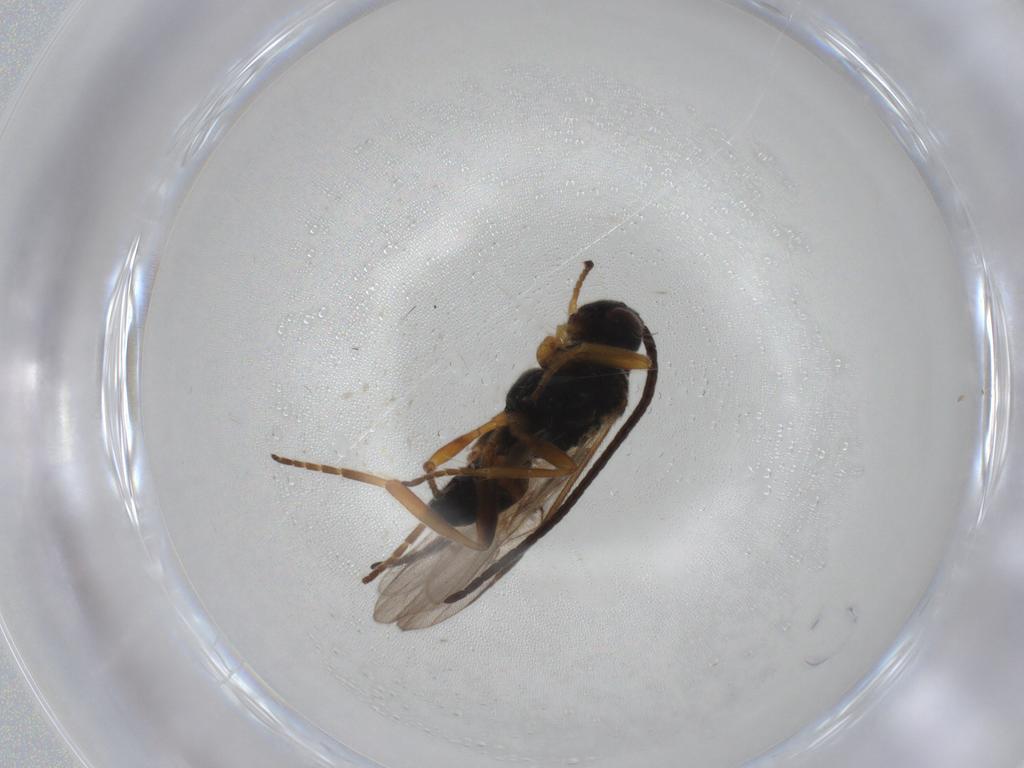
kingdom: Animalia
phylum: Arthropoda
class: Insecta
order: Hymenoptera
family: Braconidae
